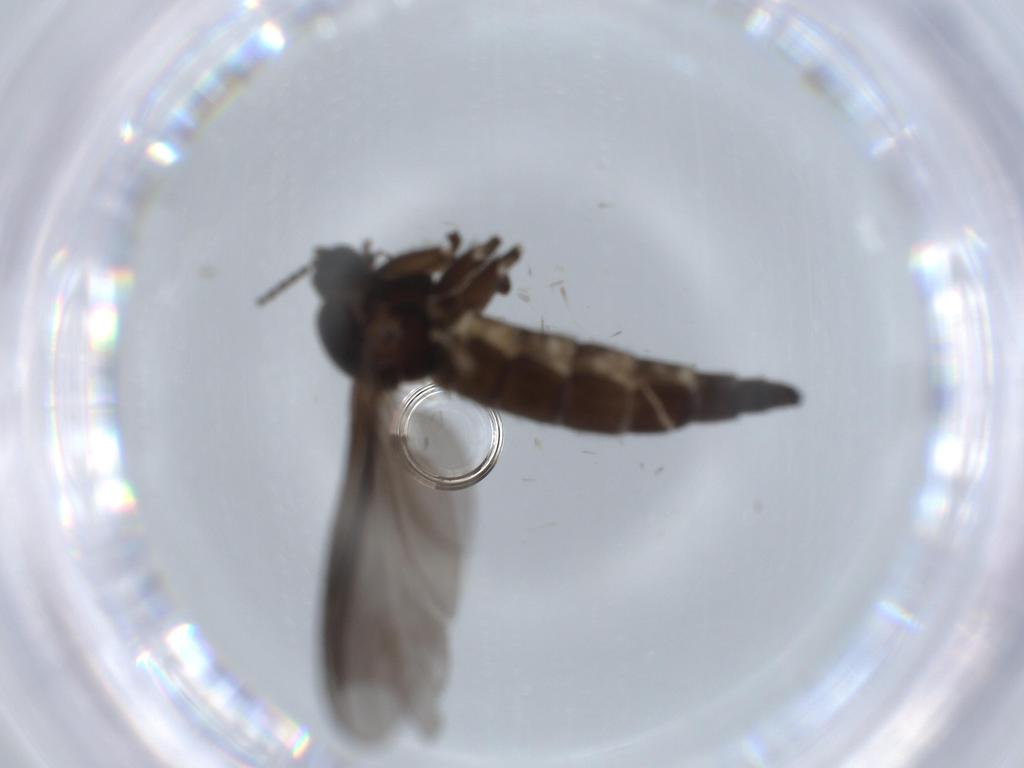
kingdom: Animalia
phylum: Arthropoda
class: Insecta
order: Diptera
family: Sciaridae
